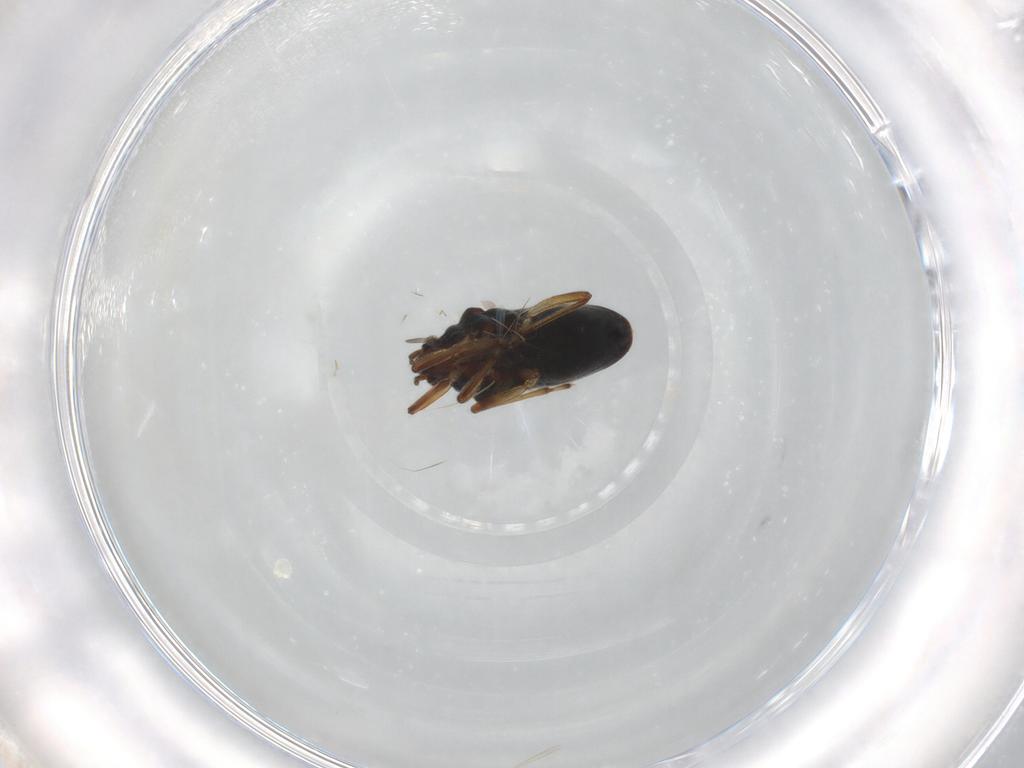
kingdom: Animalia
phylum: Arthropoda
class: Insecta
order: Hemiptera
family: Hebridae
